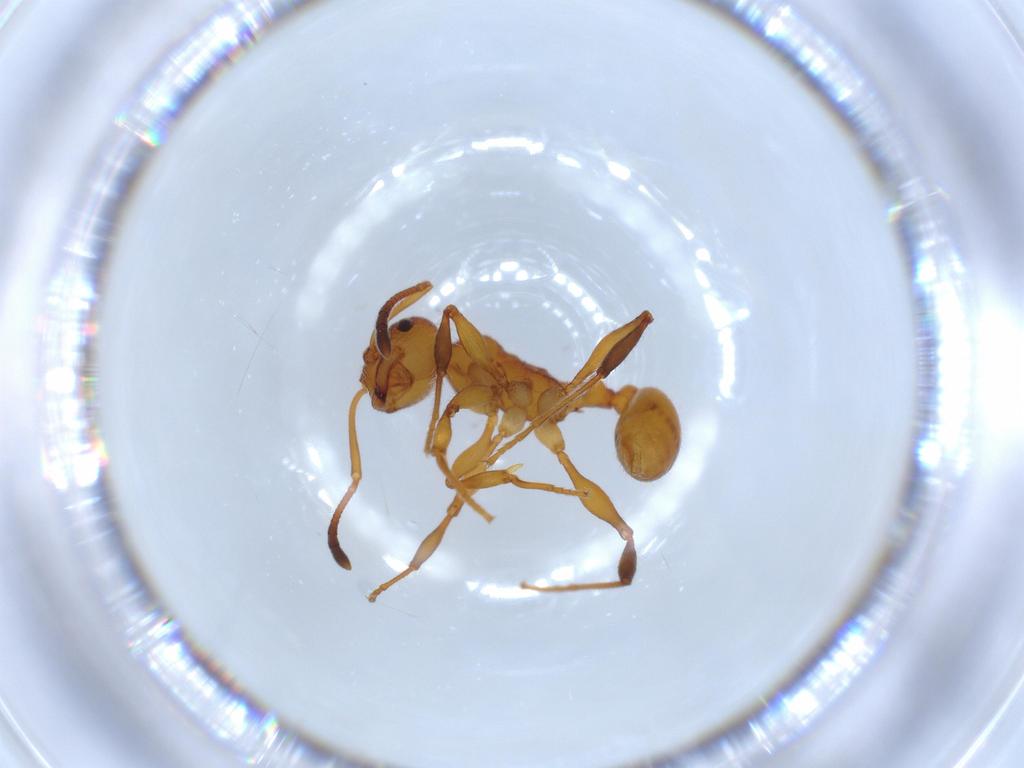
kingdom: Animalia
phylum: Arthropoda
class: Insecta
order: Hymenoptera
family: Formicidae
